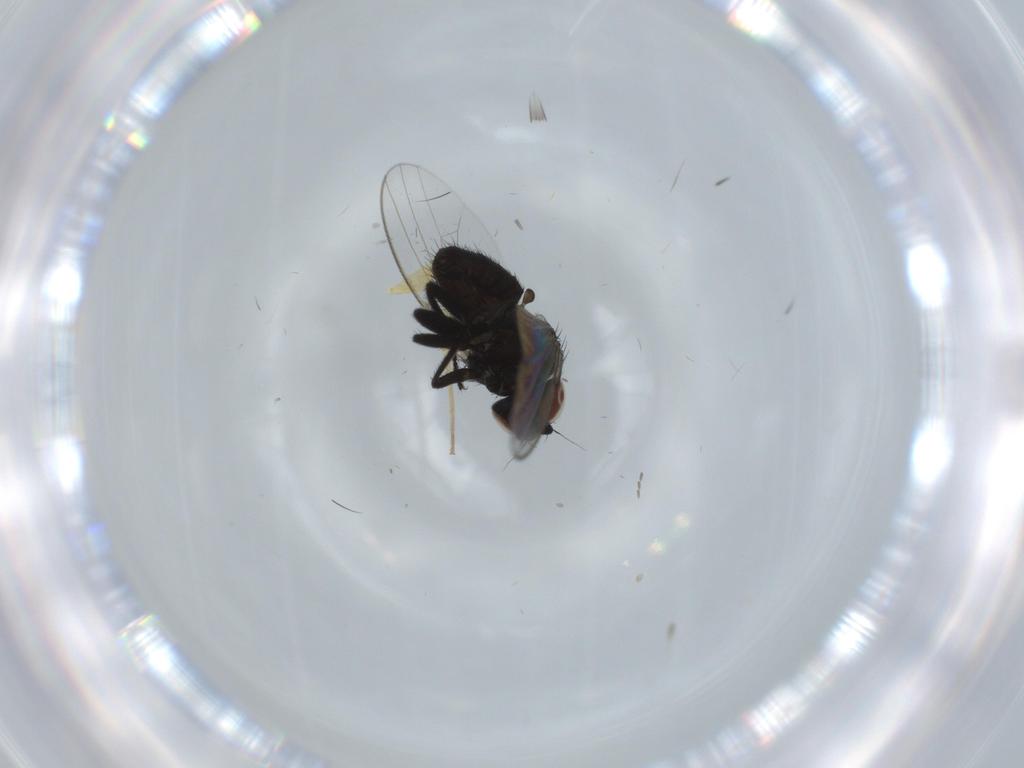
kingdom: Animalia
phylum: Arthropoda
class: Insecta
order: Diptera
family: Dolichopodidae
